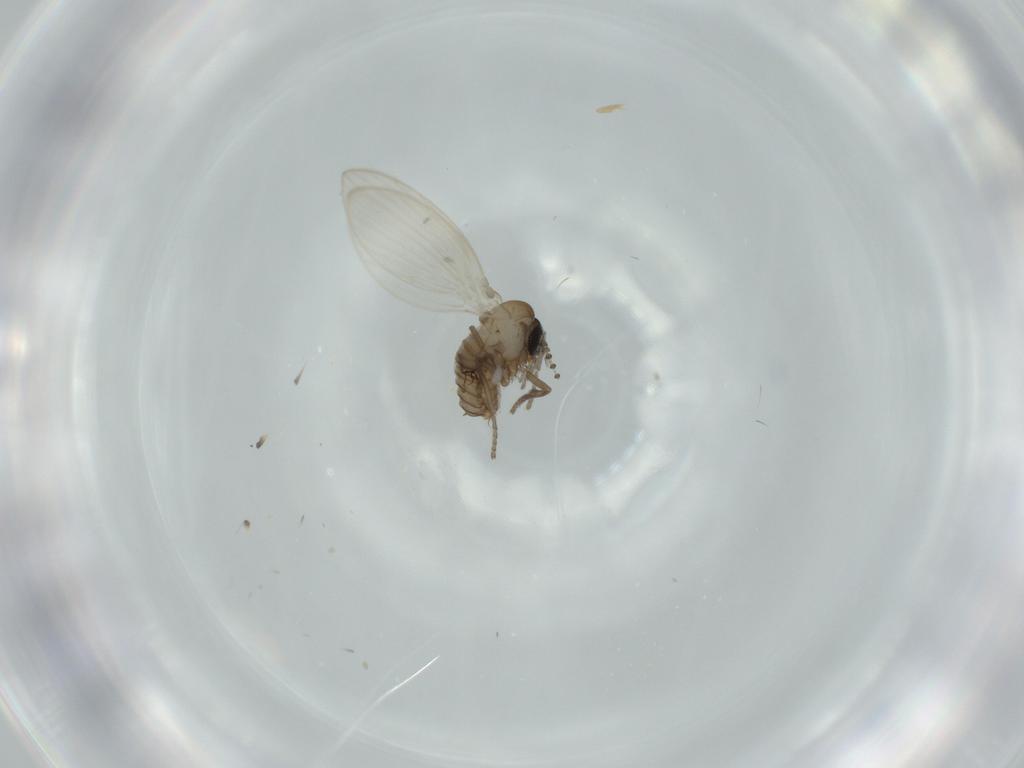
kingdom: Animalia
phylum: Arthropoda
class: Insecta
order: Diptera
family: Psychodidae
